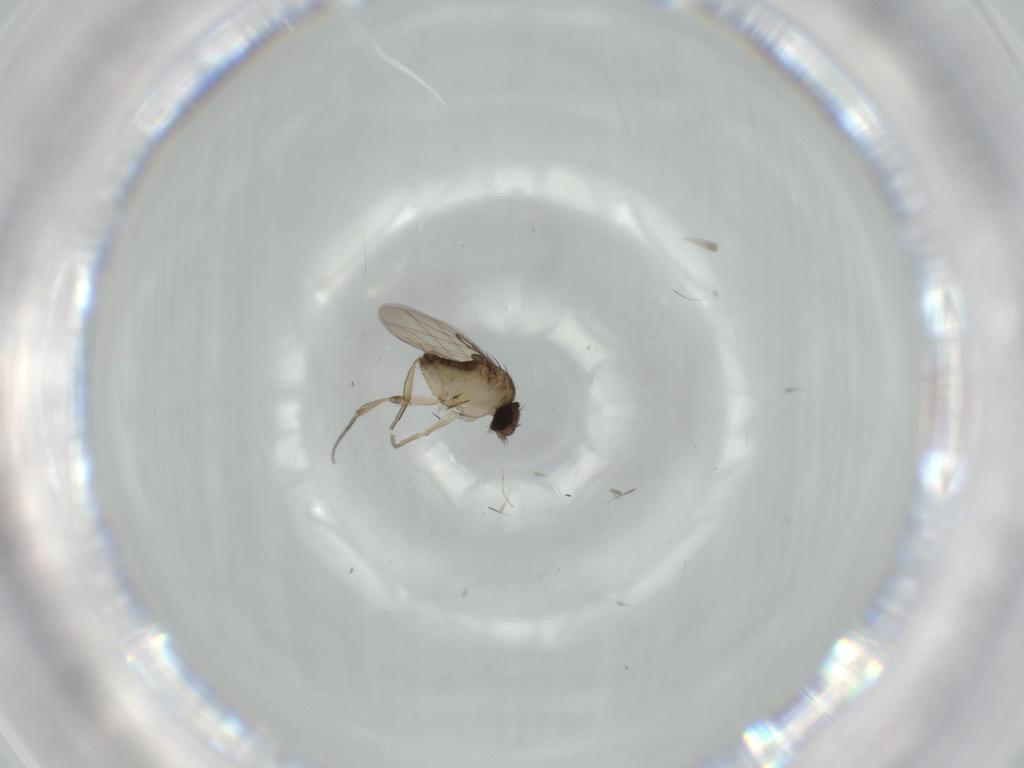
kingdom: Animalia
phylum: Arthropoda
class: Insecta
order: Diptera
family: Phoridae
